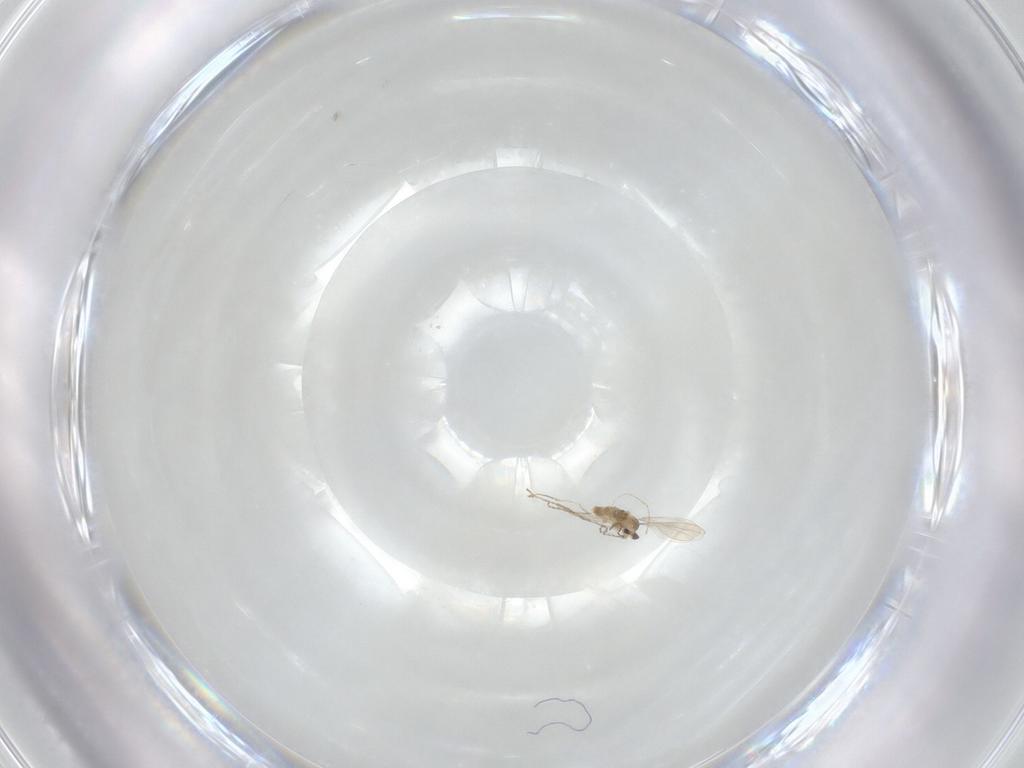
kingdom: Animalia
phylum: Arthropoda
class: Insecta
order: Diptera
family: Cecidomyiidae
